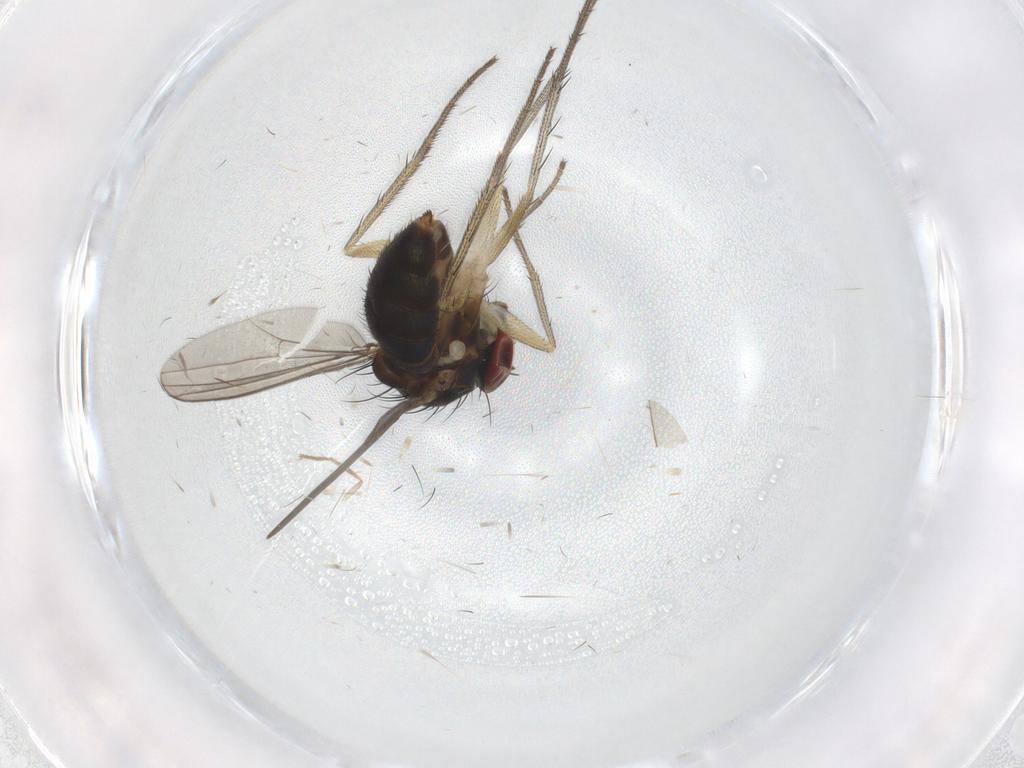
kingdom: Animalia
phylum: Arthropoda
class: Insecta
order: Diptera
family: Dolichopodidae
